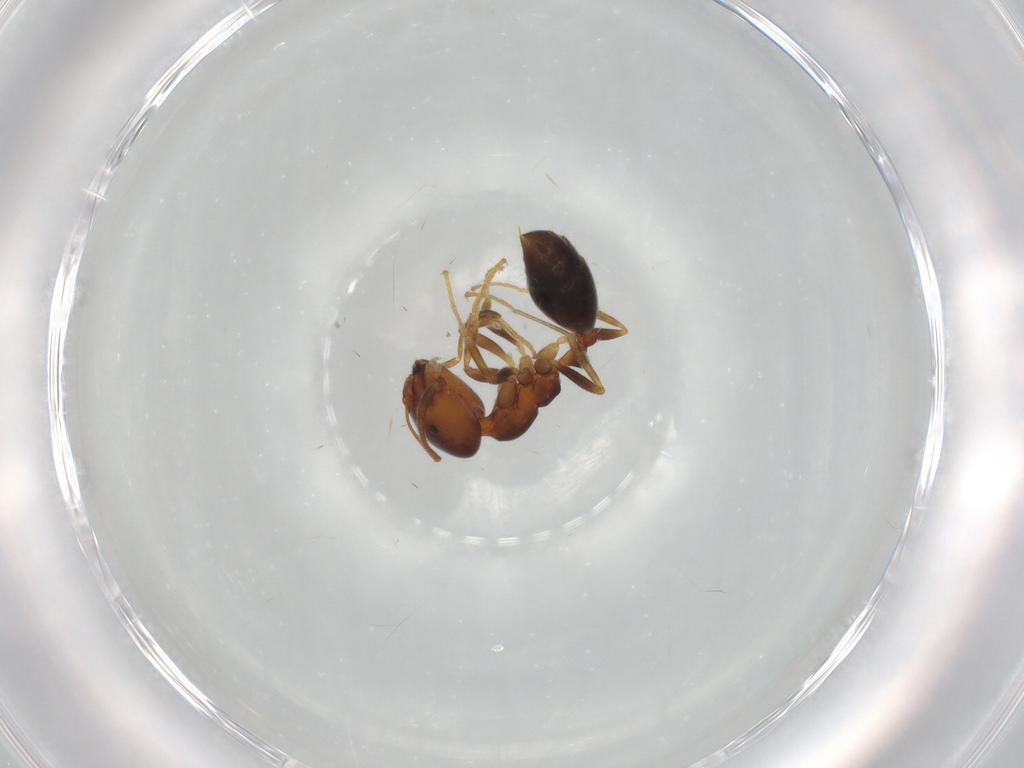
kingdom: Animalia
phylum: Arthropoda
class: Insecta
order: Hymenoptera
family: Formicidae
